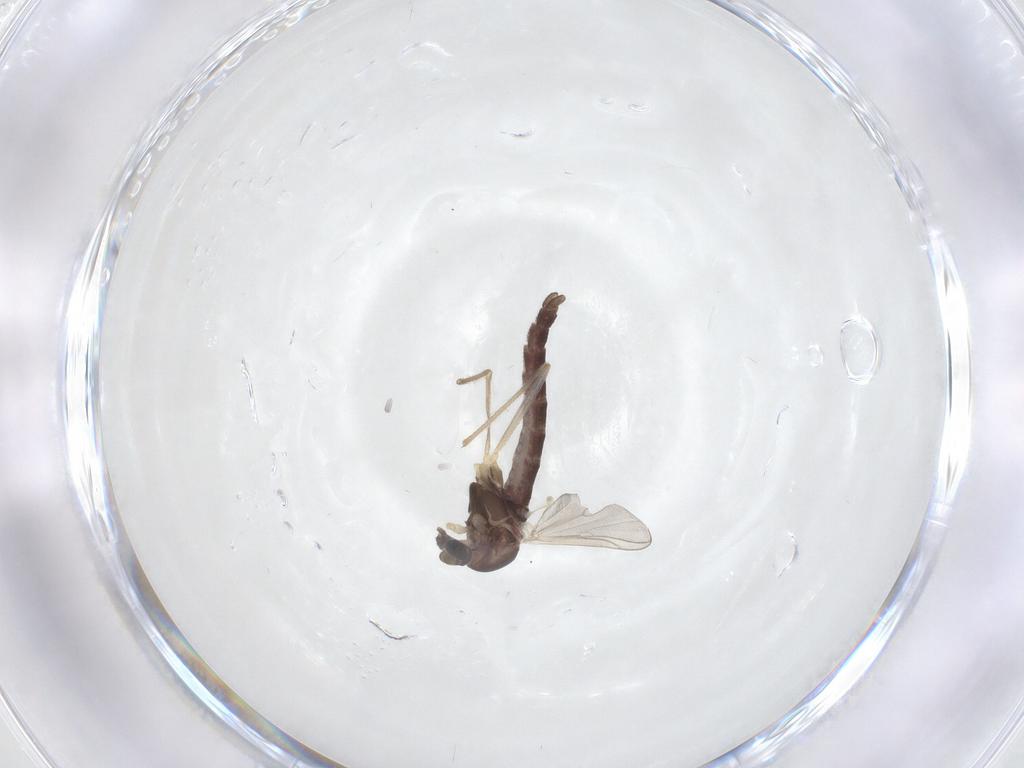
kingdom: Animalia
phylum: Arthropoda
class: Insecta
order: Diptera
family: Chironomidae
